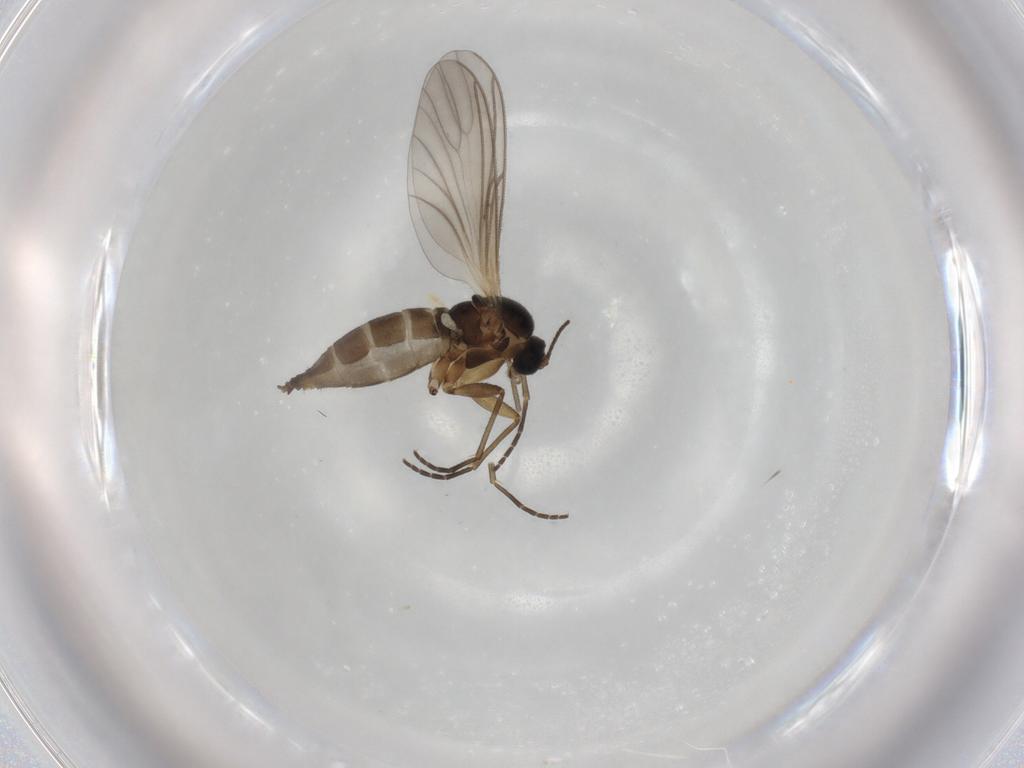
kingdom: Animalia
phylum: Arthropoda
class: Insecta
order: Diptera
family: Chironomidae
